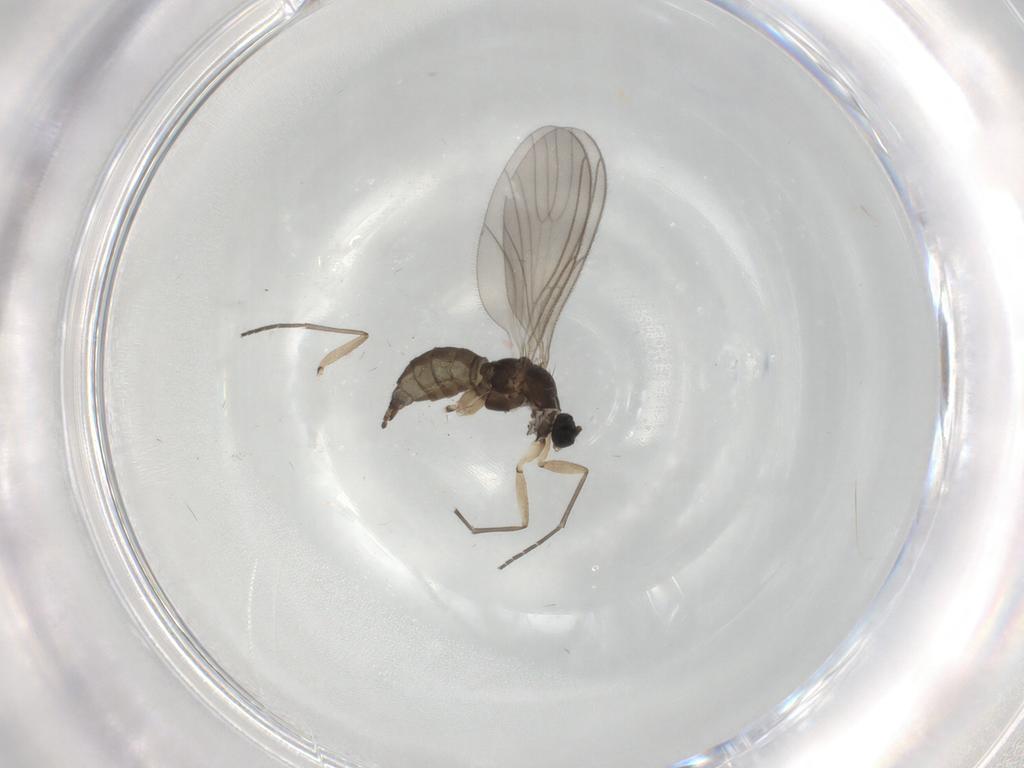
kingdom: Animalia
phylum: Arthropoda
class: Insecta
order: Diptera
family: Sciaridae
